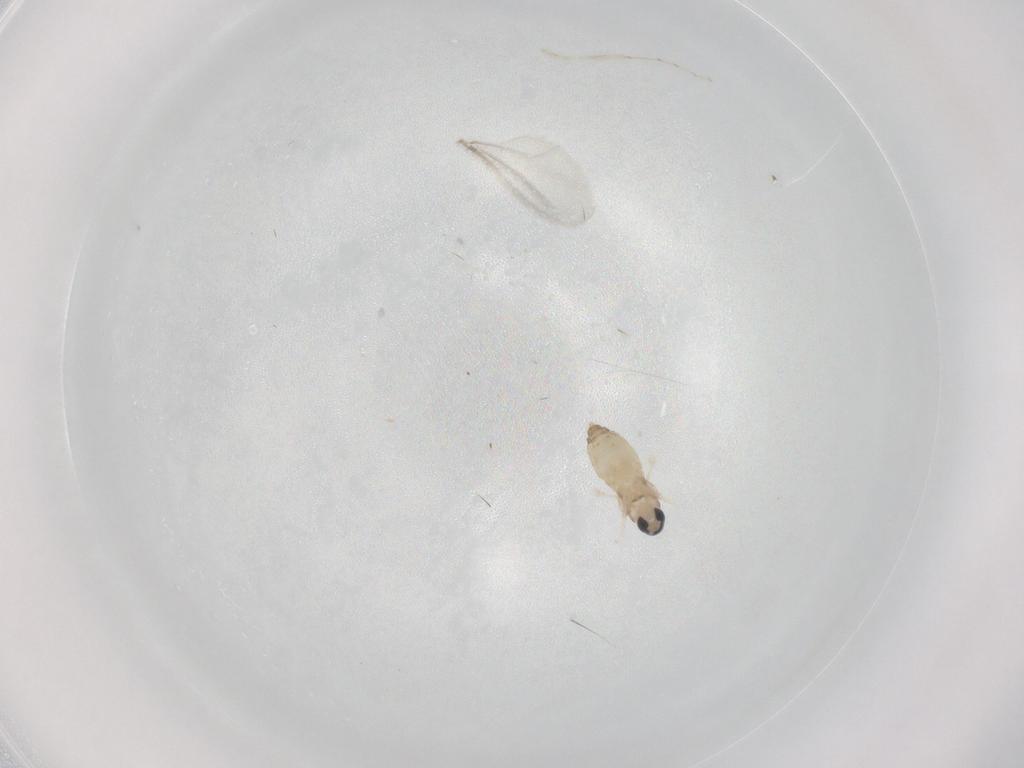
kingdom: Animalia
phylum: Arthropoda
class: Insecta
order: Diptera
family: Cecidomyiidae
